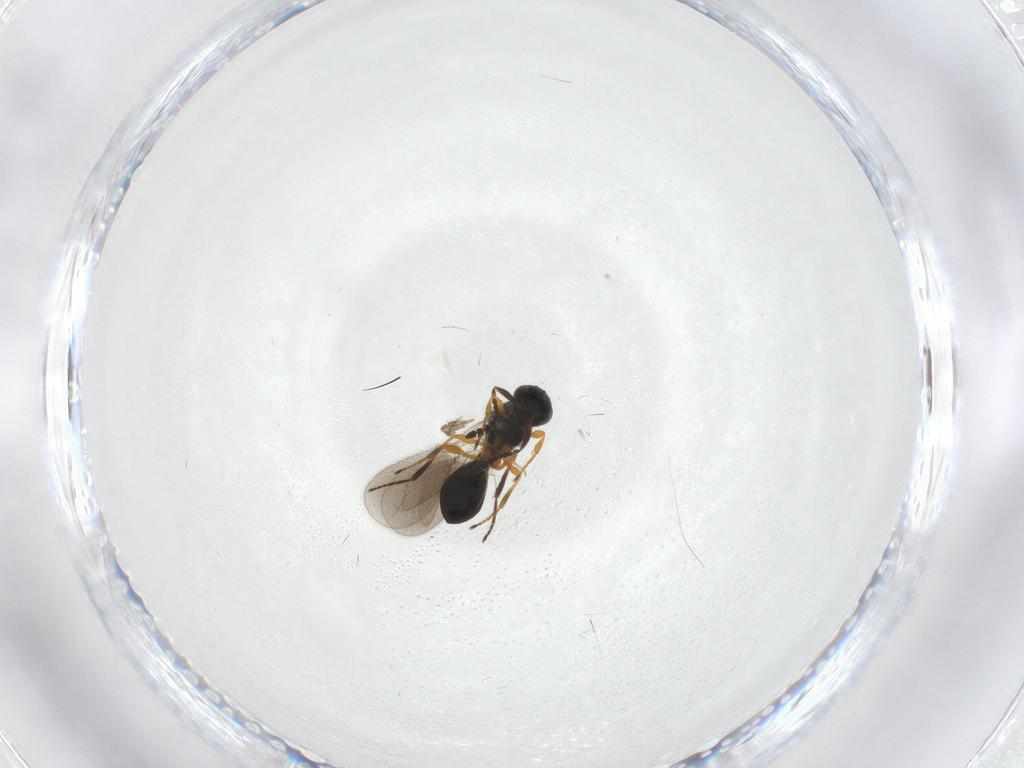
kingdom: Animalia
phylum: Arthropoda
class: Insecta
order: Hymenoptera
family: Platygastridae
